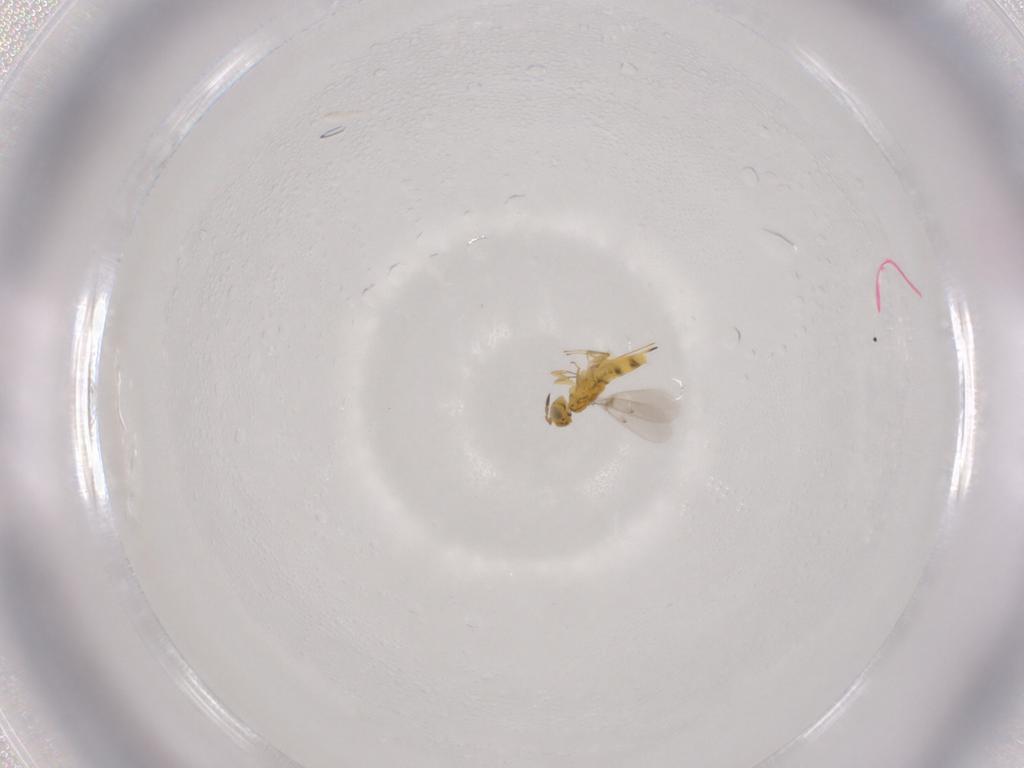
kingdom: Animalia
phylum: Arthropoda
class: Insecta
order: Hymenoptera
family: Aphelinidae
